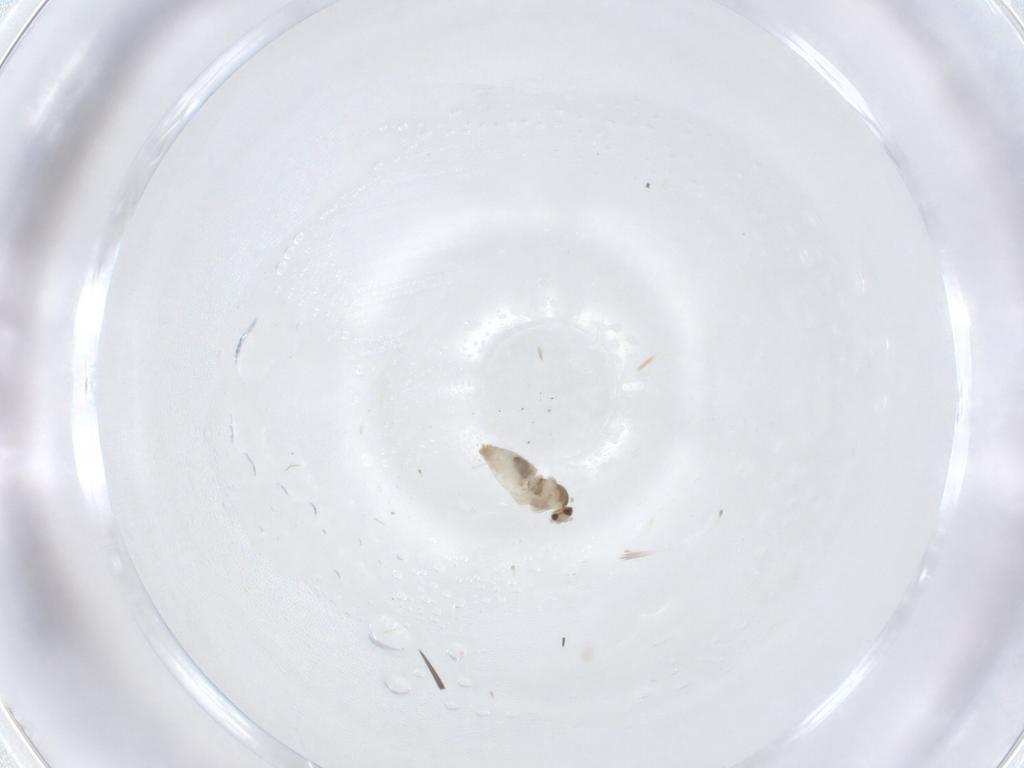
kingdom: Animalia
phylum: Arthropoda
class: Insecta
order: Diptera
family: Cecidomyiidae
